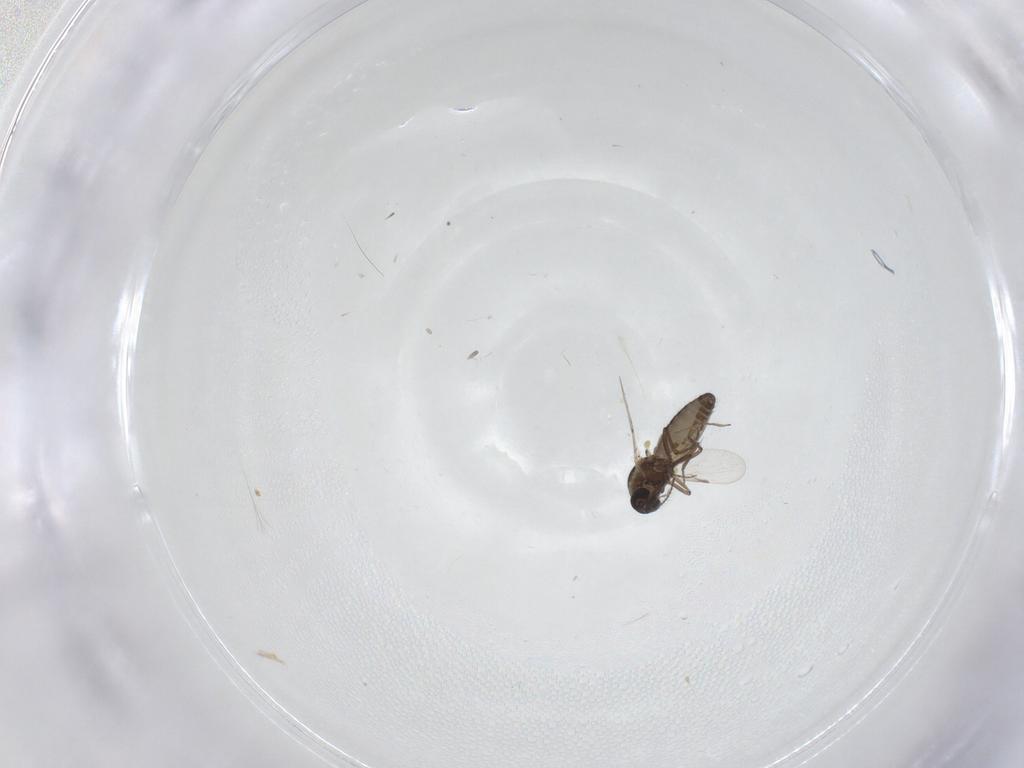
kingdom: Animalia
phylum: Arthropoda
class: Insecta
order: Diptera
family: Ceratopogonidae
